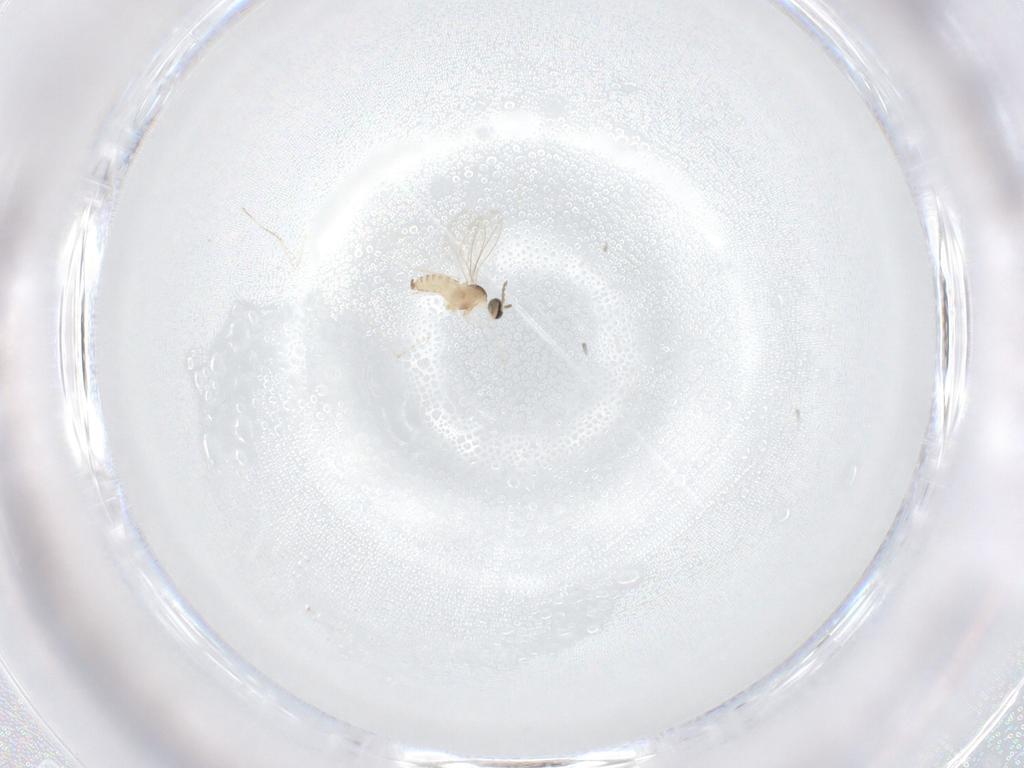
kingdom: Animalia
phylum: Arthropoda
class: Insecta
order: Diptera
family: Cecidomyiidae
